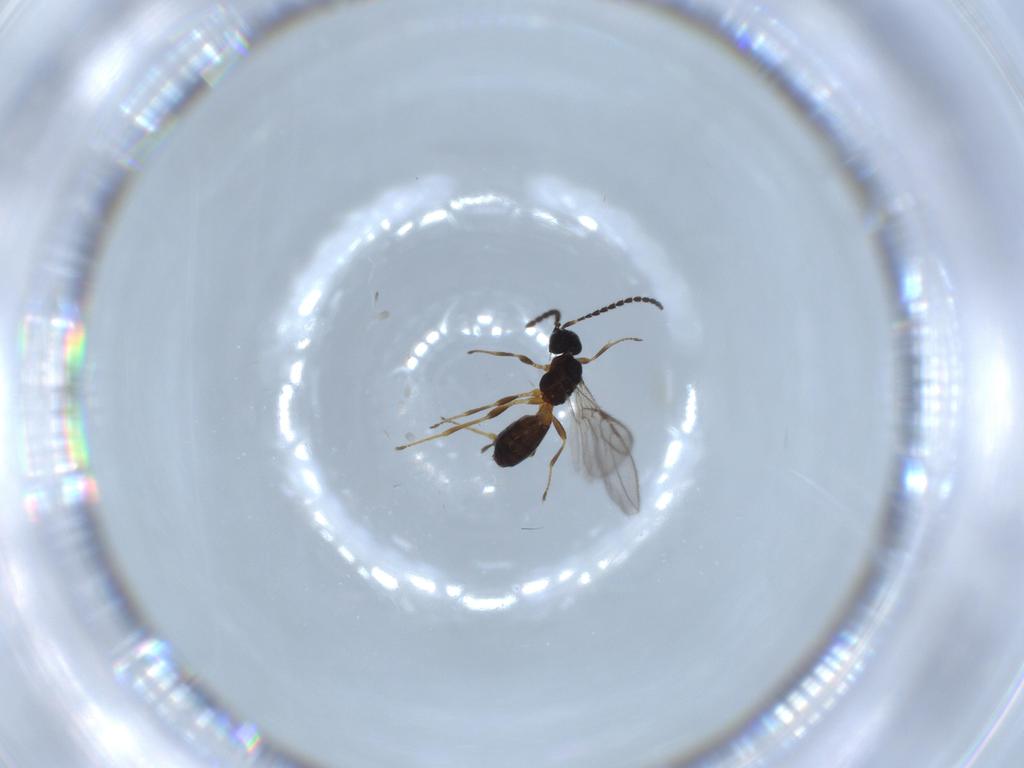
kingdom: Animalia
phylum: Arthropoda
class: Insecta
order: Hymenoptera
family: Braconidae
